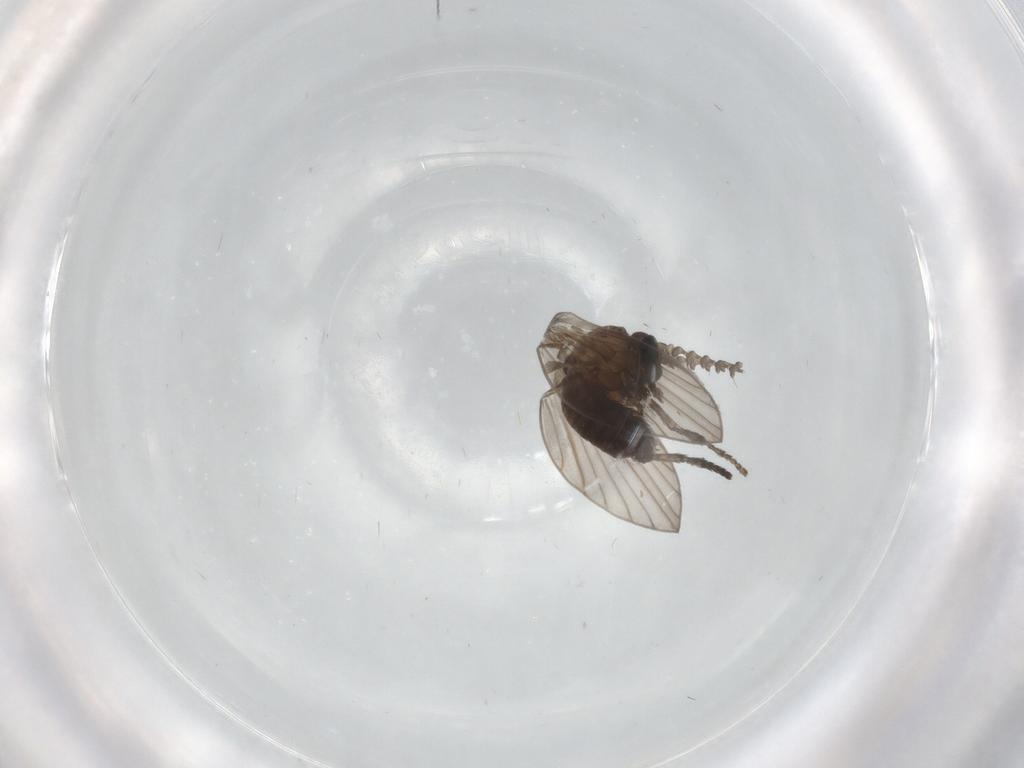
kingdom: Animalia
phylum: Arthropoda
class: Insecta
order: Diptera
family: Psychodidae
